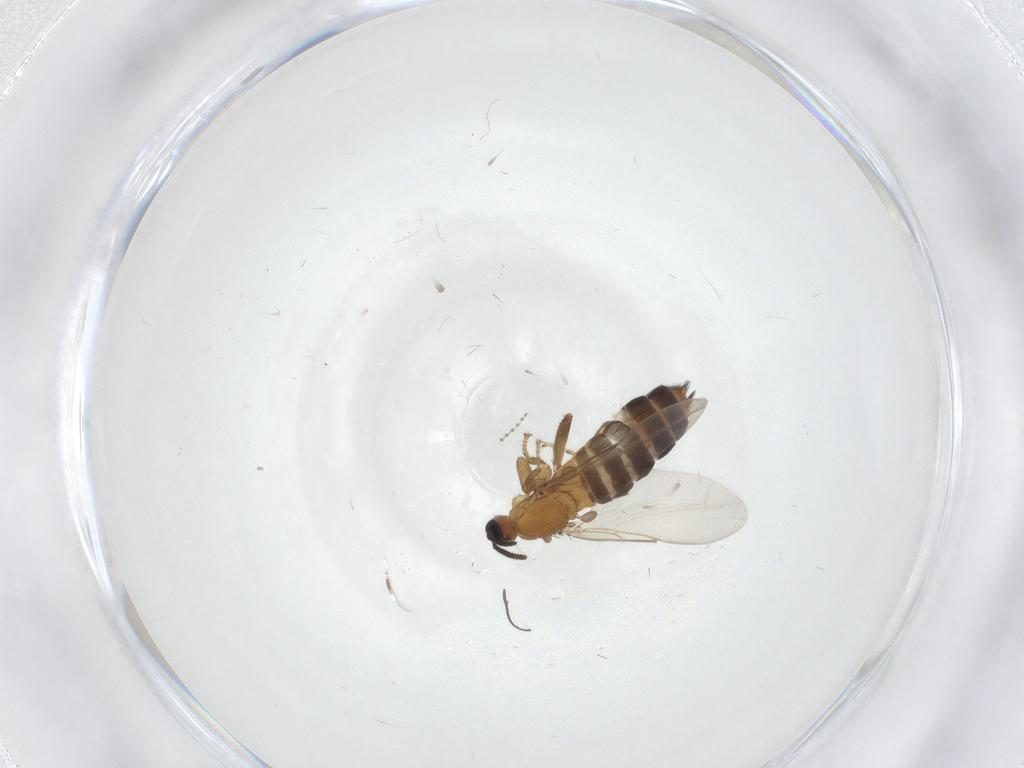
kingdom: Animalia
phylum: Arthropoda
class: Insecta
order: Diptera
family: Scatopsidae
